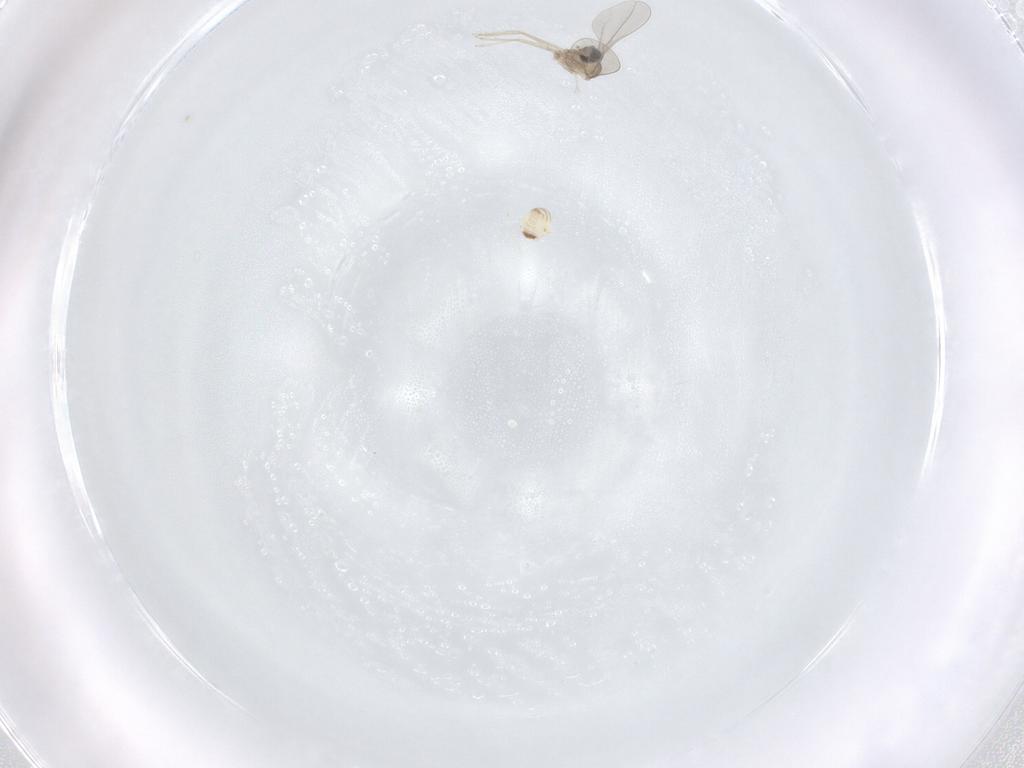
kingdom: Animalia
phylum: Arthropoda
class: Insecta
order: Diptera
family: Cecidomyiidae
